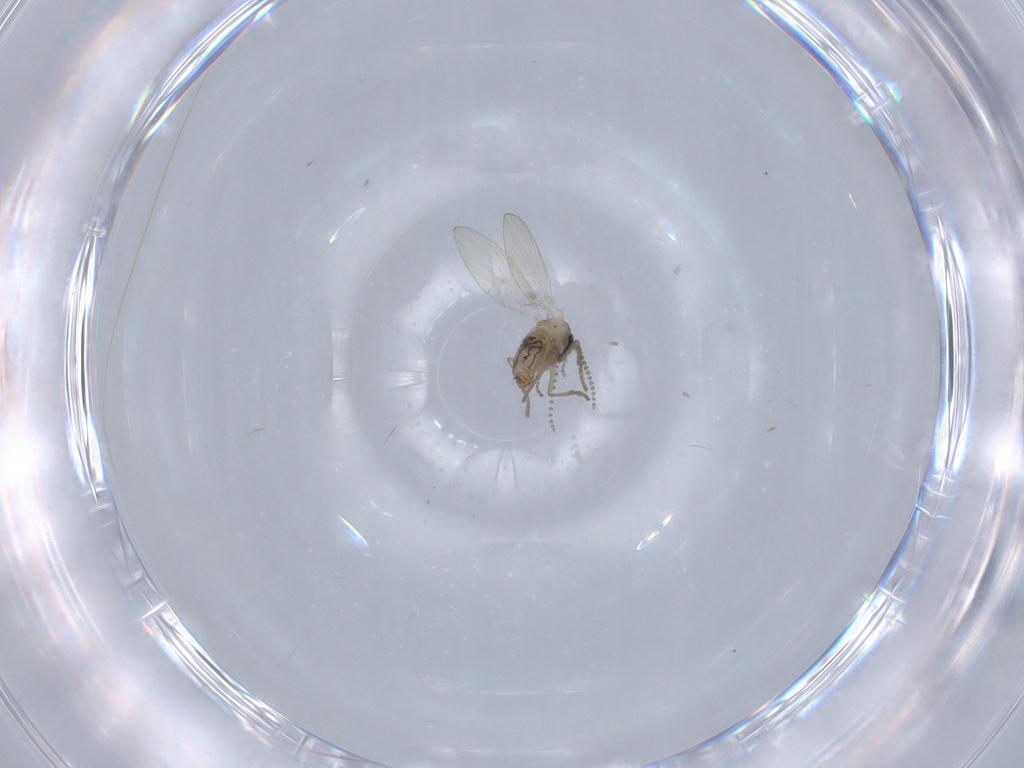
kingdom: Animalia
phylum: Arthropoda
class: Insecta
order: Diptera
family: Psychodidae
